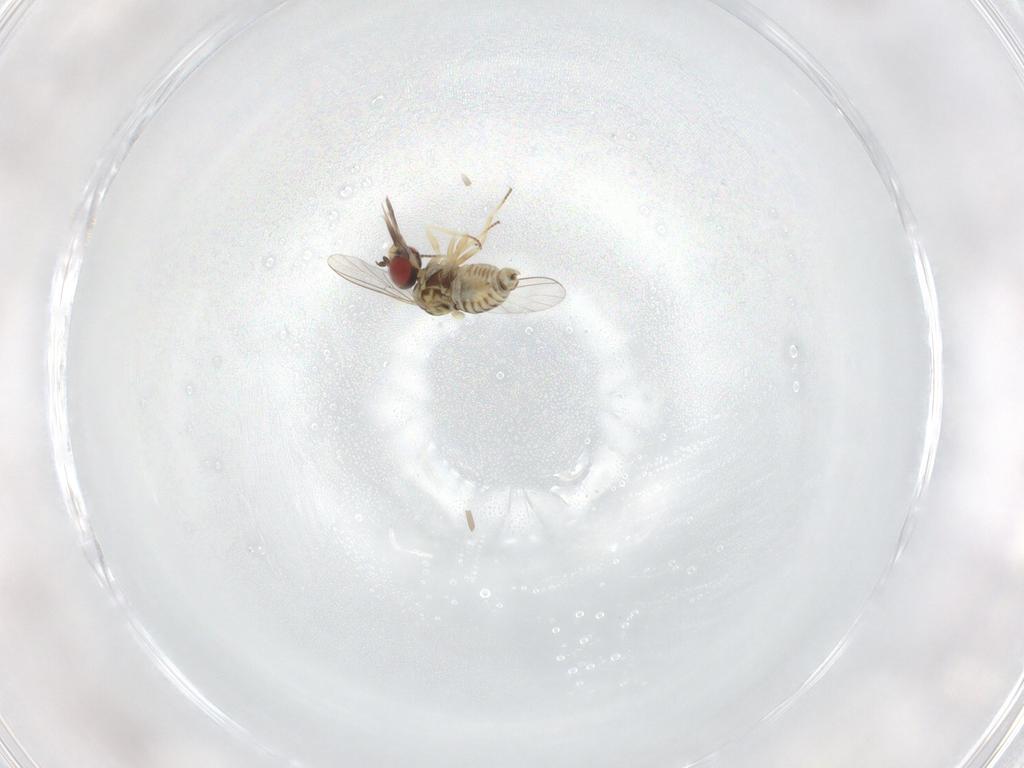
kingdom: Animalia
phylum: Arthropoda
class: Insecta
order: Diptera
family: Bombyliidae
